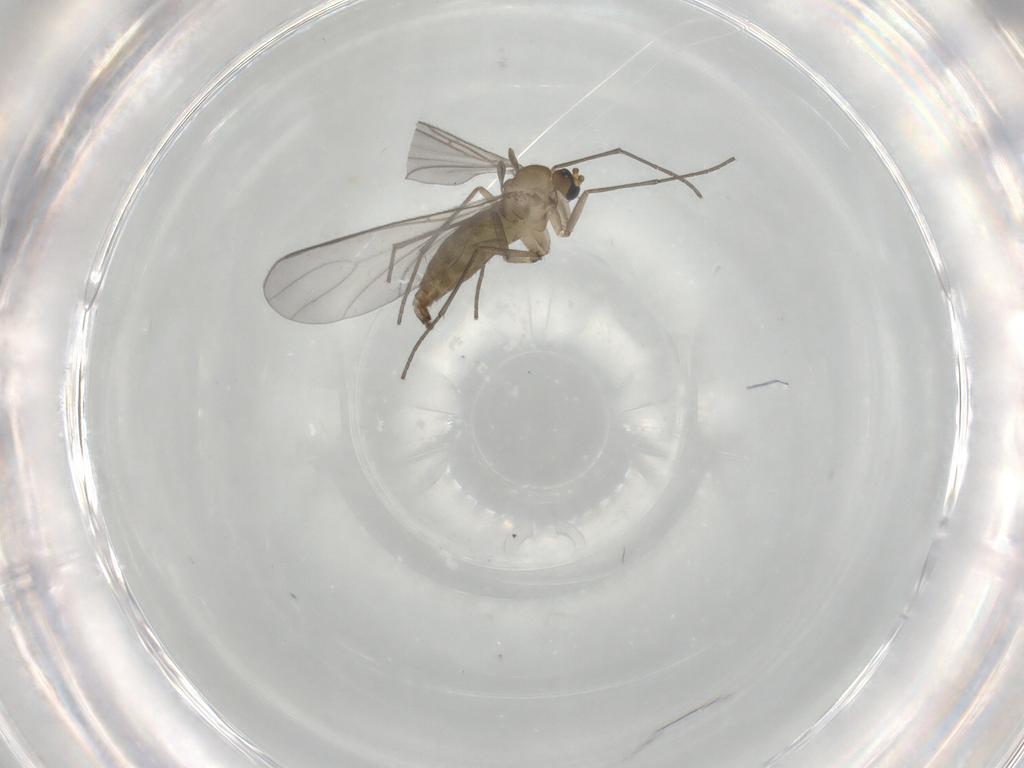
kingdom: Animalia
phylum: Arthropoda
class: Insecta
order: Diptera
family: Sciaridae
